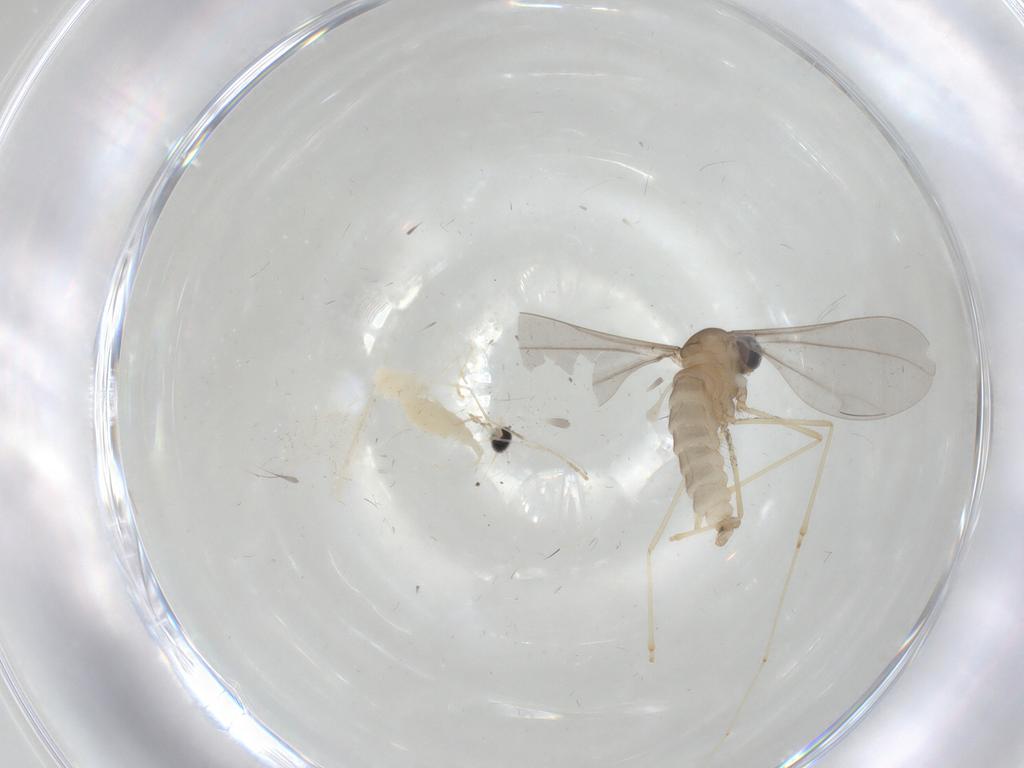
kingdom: Animalia
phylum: Arthropoda
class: Insecta
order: Diptera
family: Cecidomyiidae
